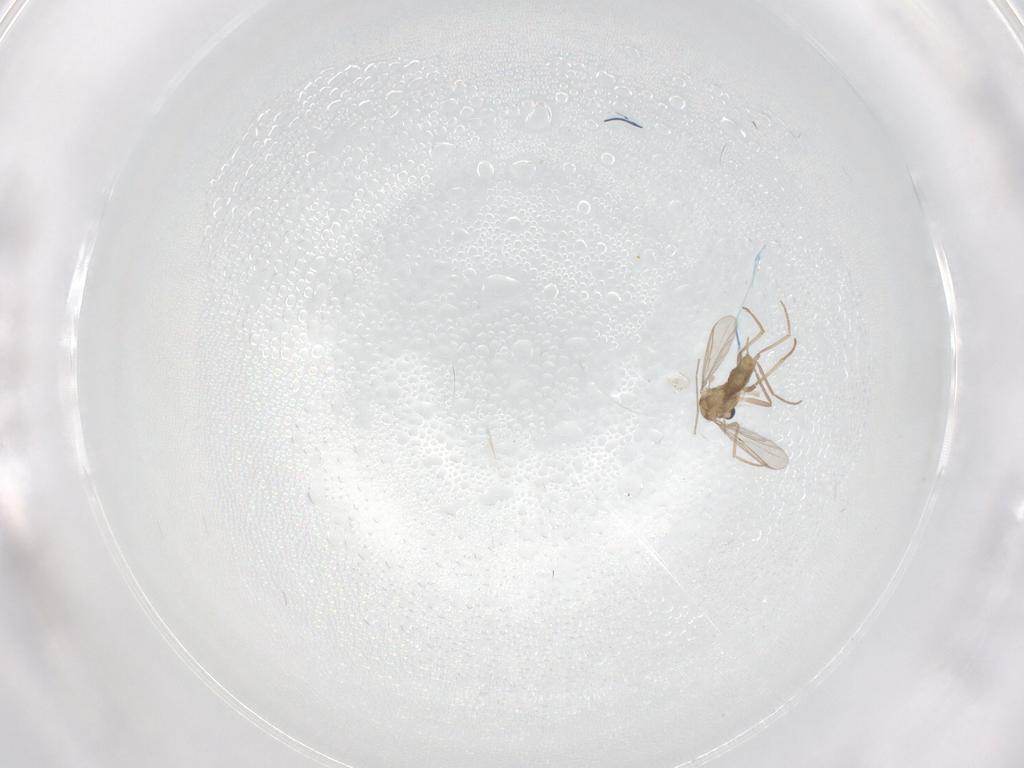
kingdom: Animalia
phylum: Arthropoda
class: Insecta
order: Diptera
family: Chironomidae
